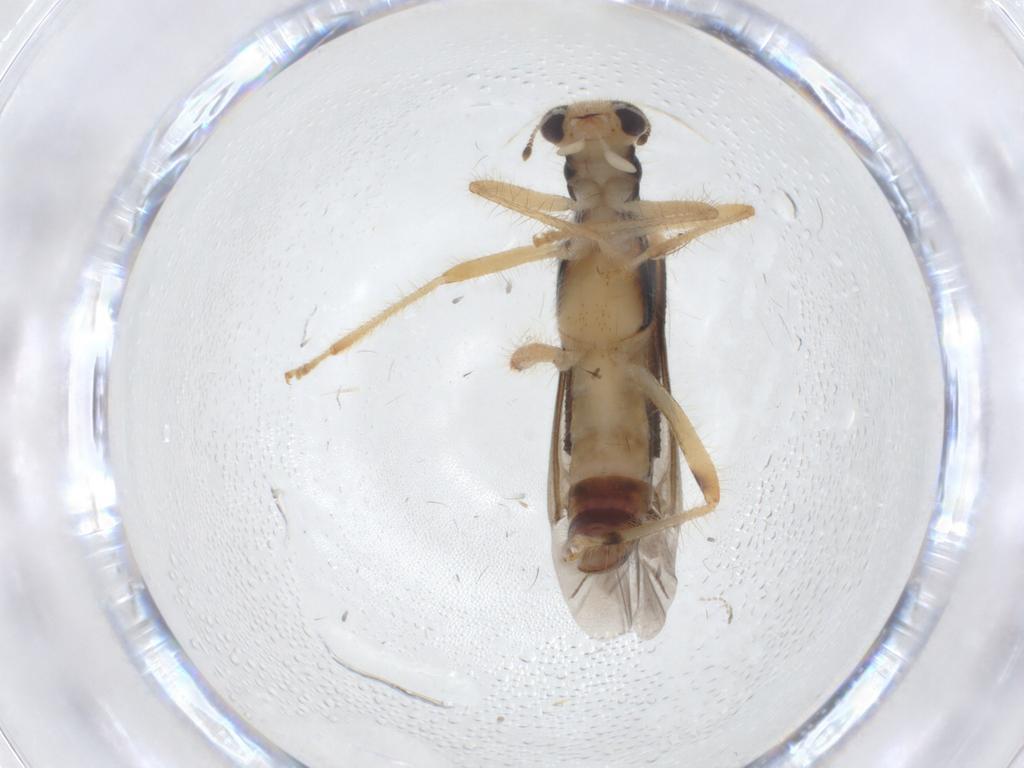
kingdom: Animalia
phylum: Arthropoda
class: Insecta
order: Coleoptera
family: Cleridae
